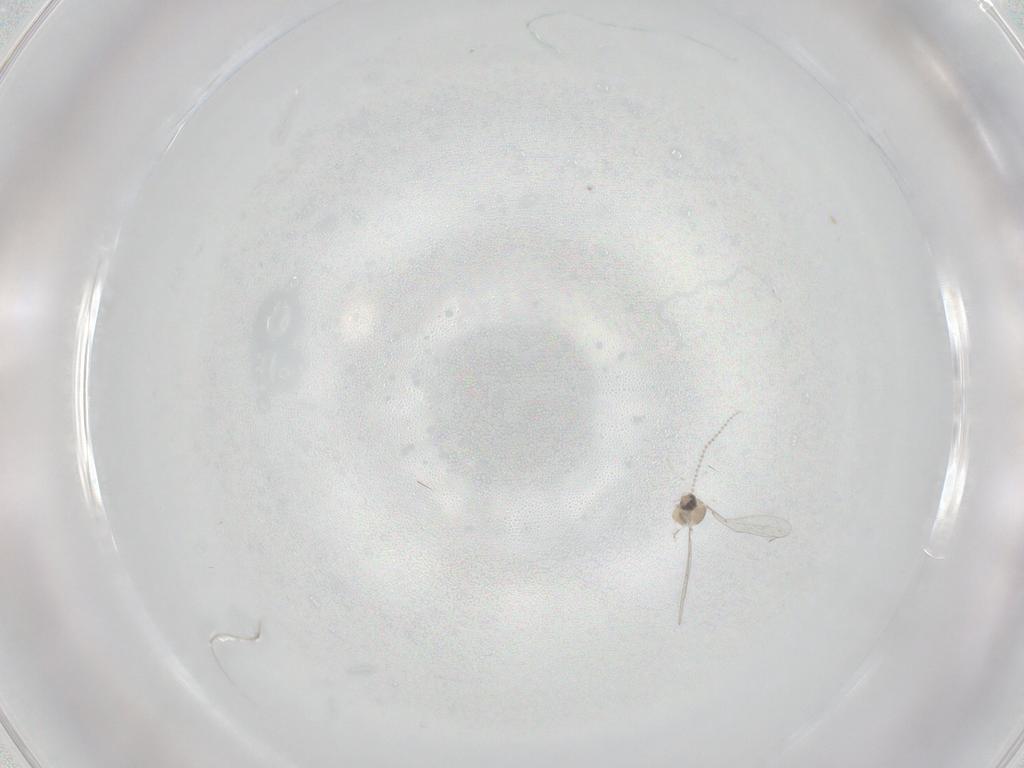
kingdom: Animalia
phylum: Arthropoda
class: Insecta
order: Diptera
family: Cecidomyiidae
